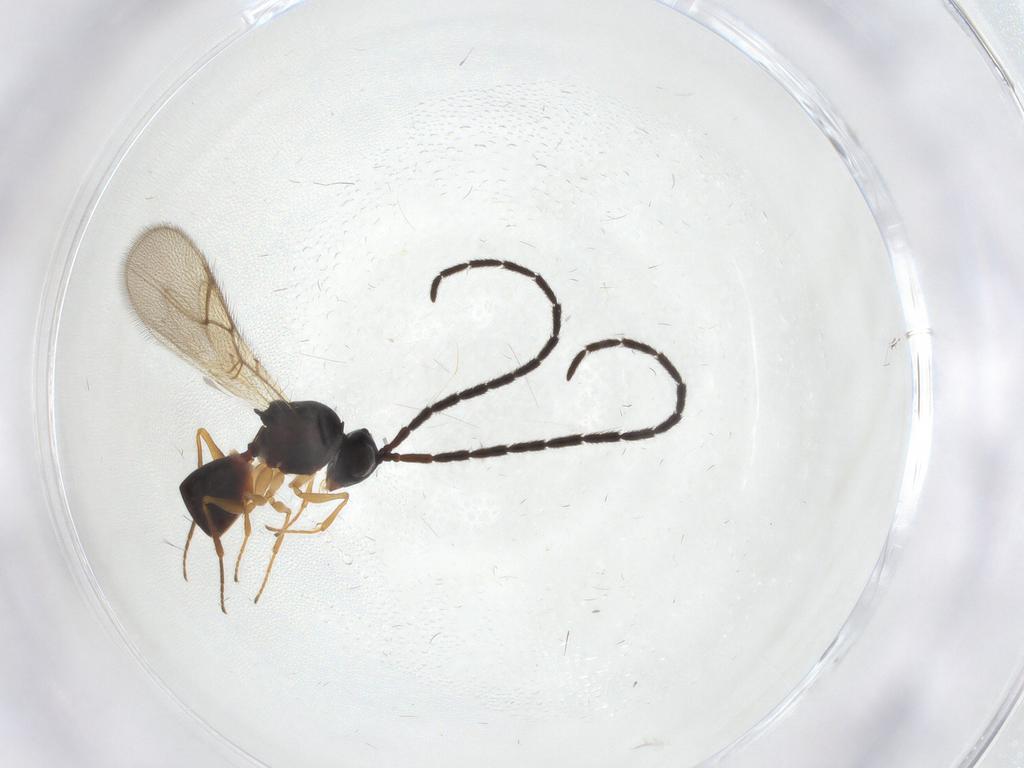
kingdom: Animalia
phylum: Arthropoda
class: Insecta
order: Hymenoptera
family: Figitidae
